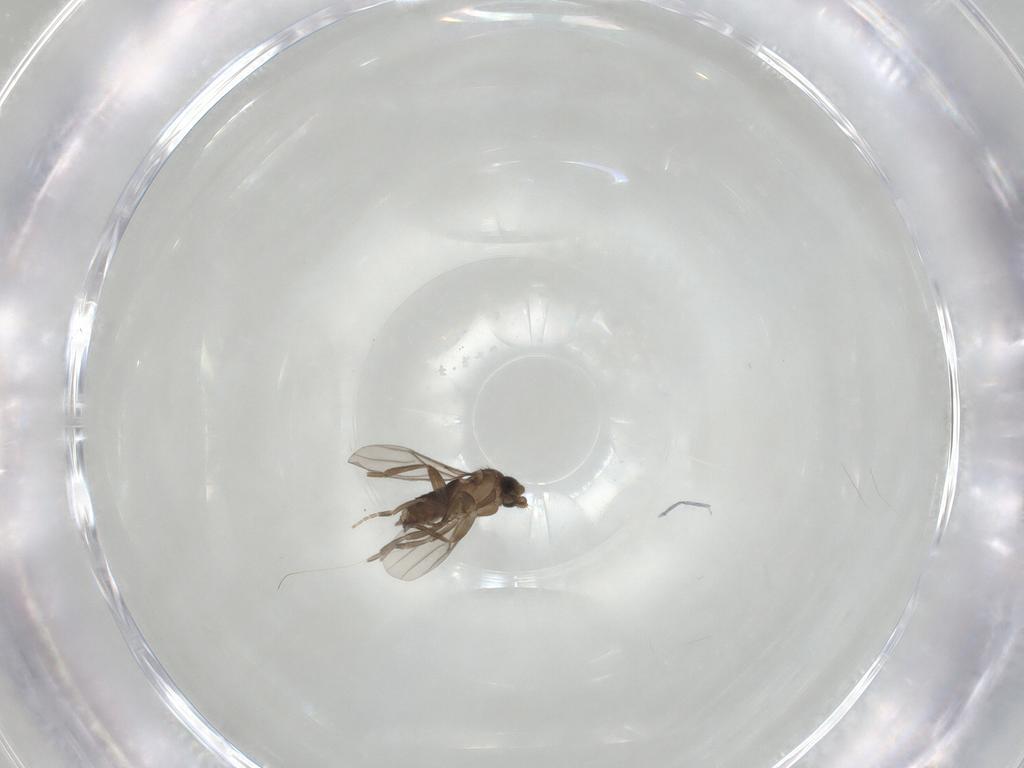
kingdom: Animalia
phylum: Arthropoda
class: Insecta
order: Diptera
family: Phoridae
